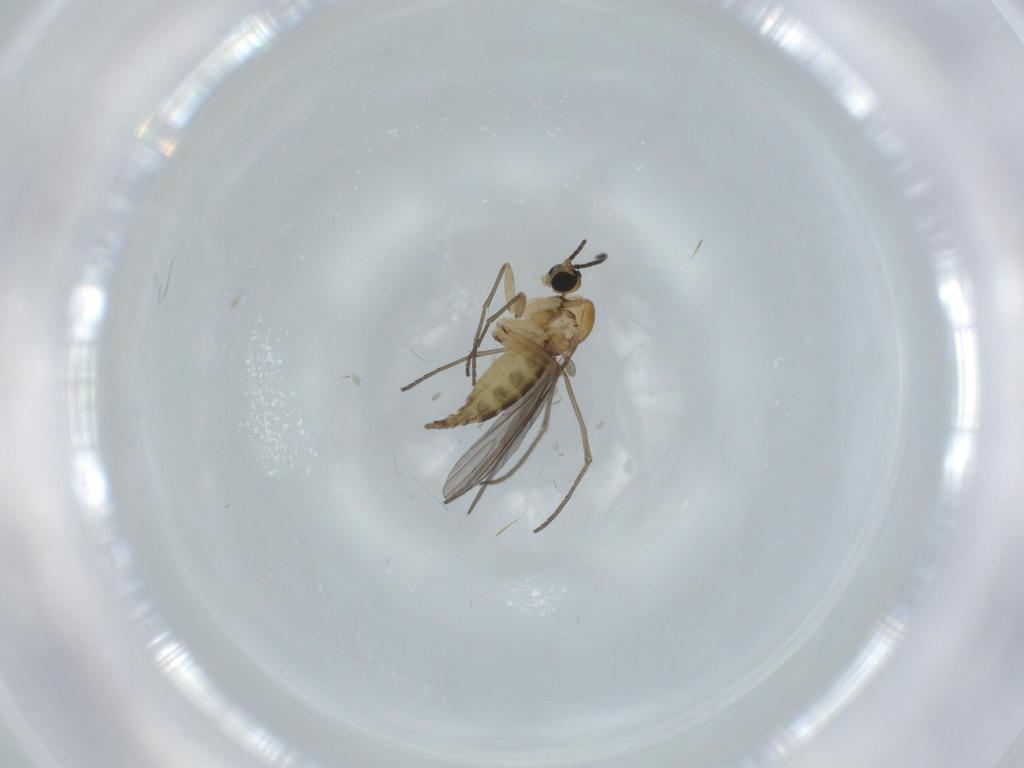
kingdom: Animalia
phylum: Arthropoda
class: Insecta
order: Diptera
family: Cecidomyiidae
